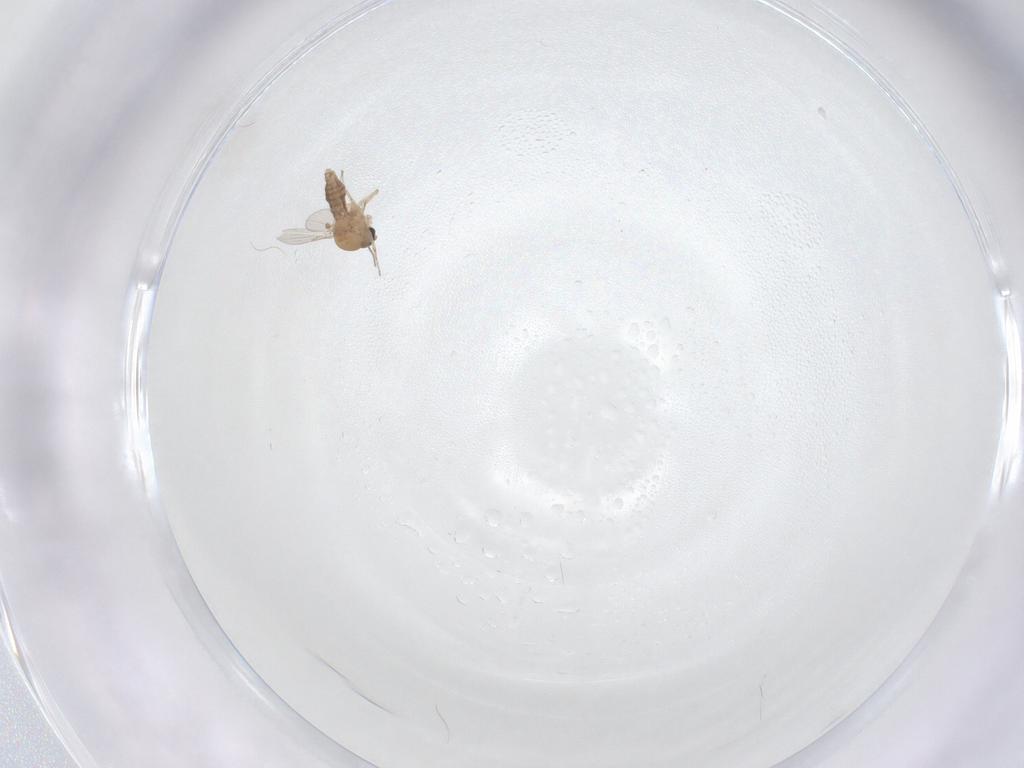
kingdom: Animalia
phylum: Arthropoda
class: Insecta
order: Diptera
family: Ceratopogonidae
